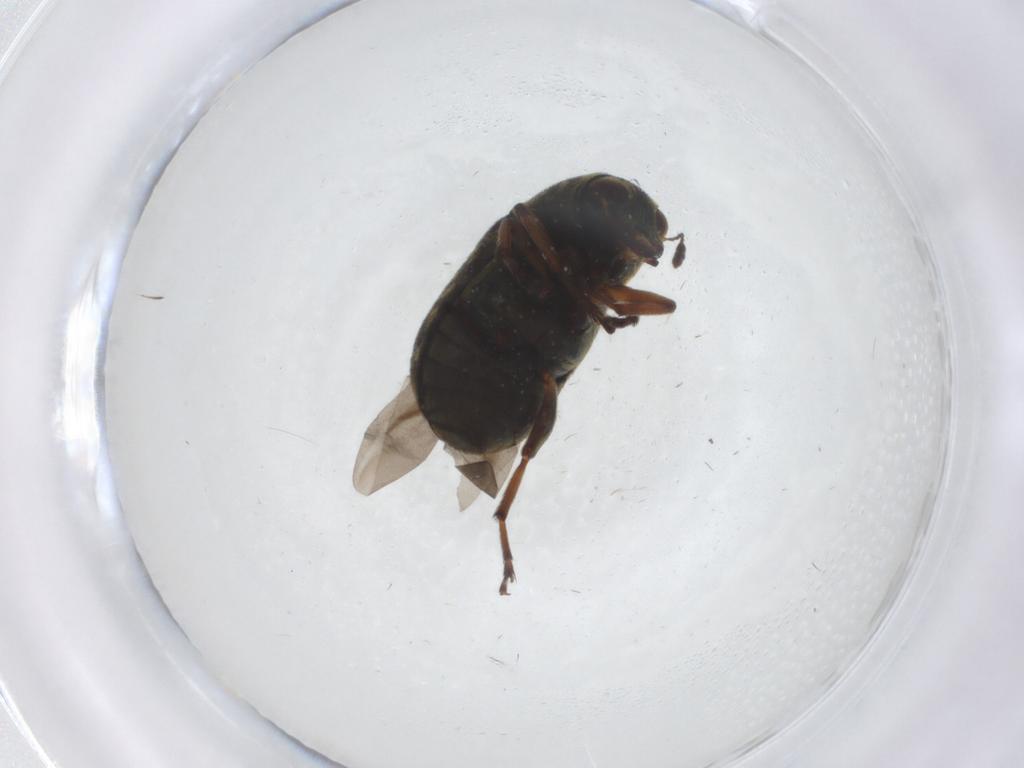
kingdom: Animalia
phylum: Arthropoda
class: Insecta
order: Coleoptera
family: Anthribidae
